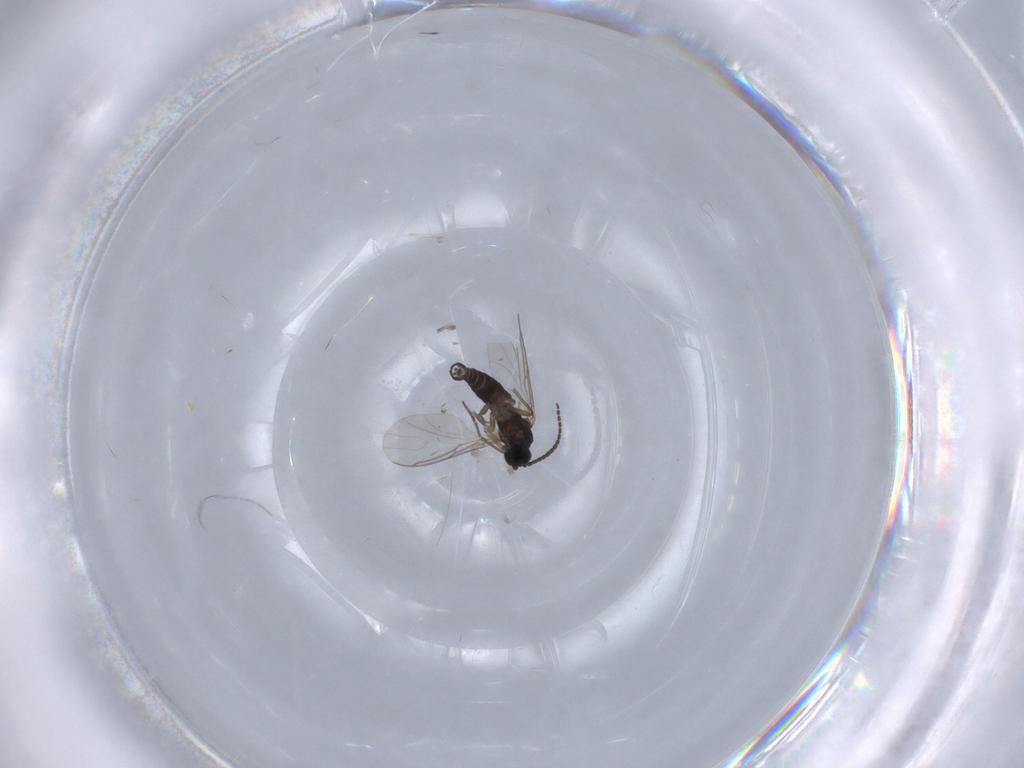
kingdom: Animalia
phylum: Arthropoda
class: Insecta
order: Diptera
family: Sciaridae
